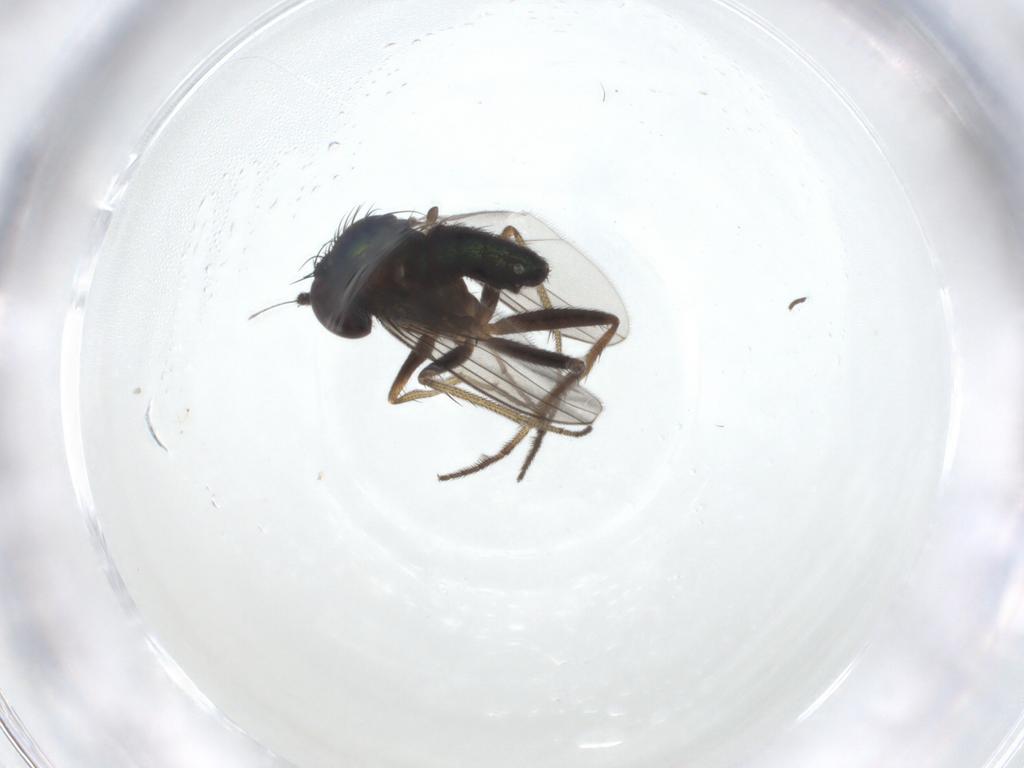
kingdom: Animalia
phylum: Arthropoda
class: Insecta
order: Diptera
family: Dolichopodidae
